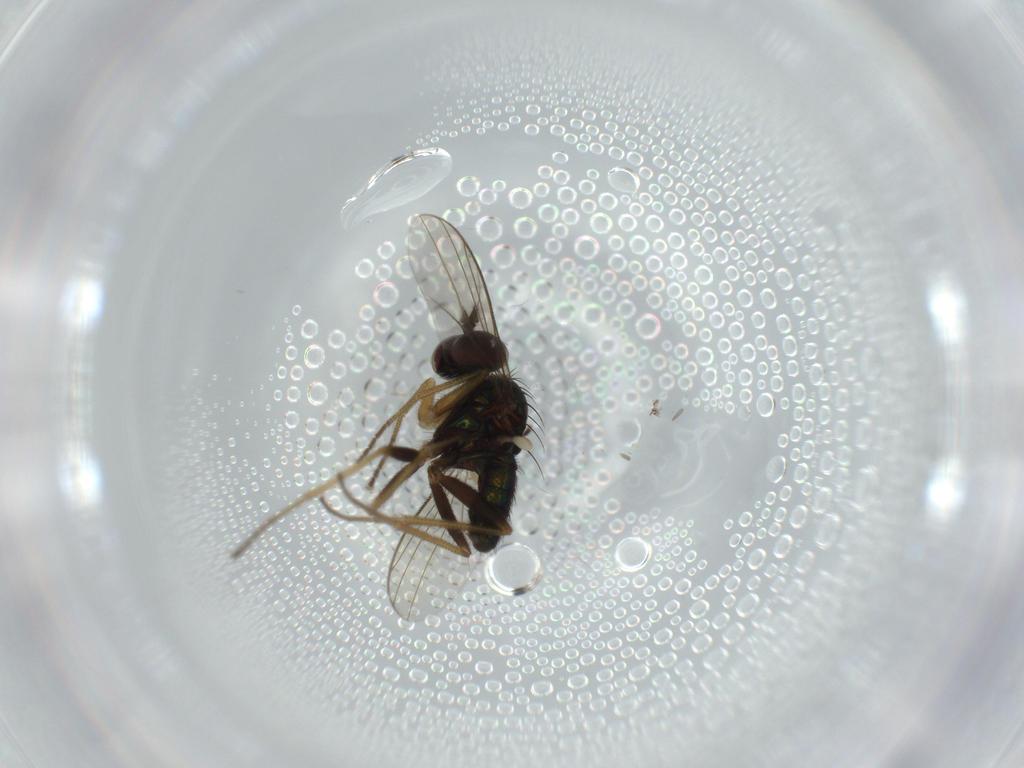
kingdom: Animalia
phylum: Arthropoda
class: Insecta
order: Diptera
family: Dolichopodidae
